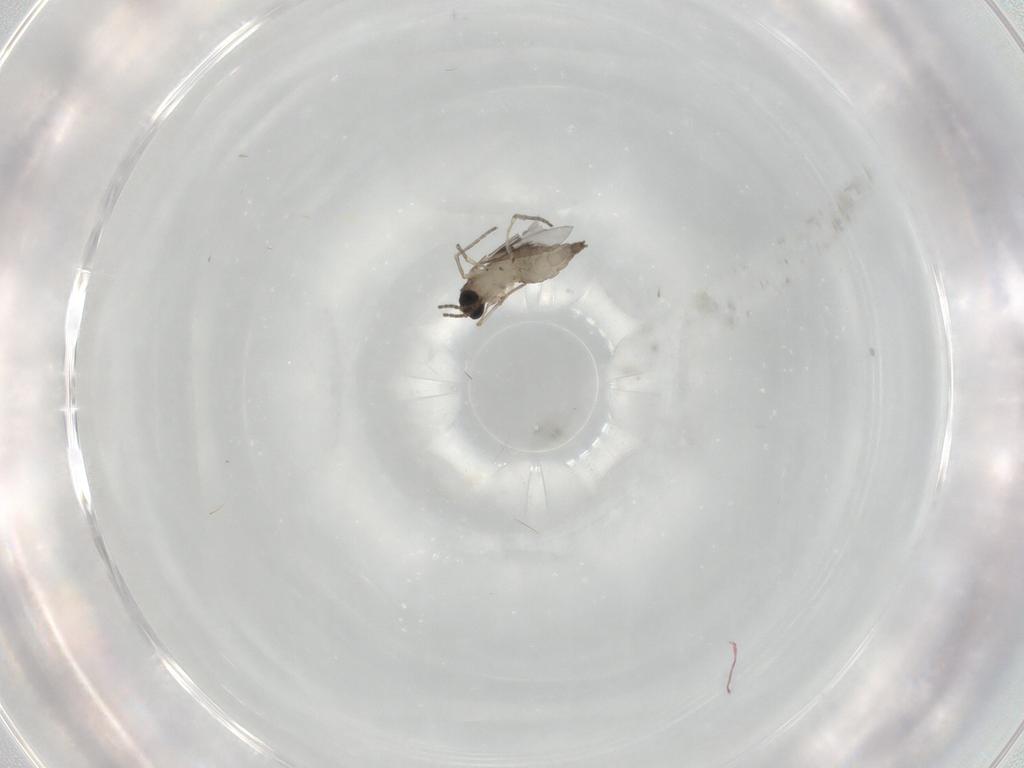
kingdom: Animalia
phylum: Arthropoda
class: Insecta
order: Diptera
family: Sciaridae
